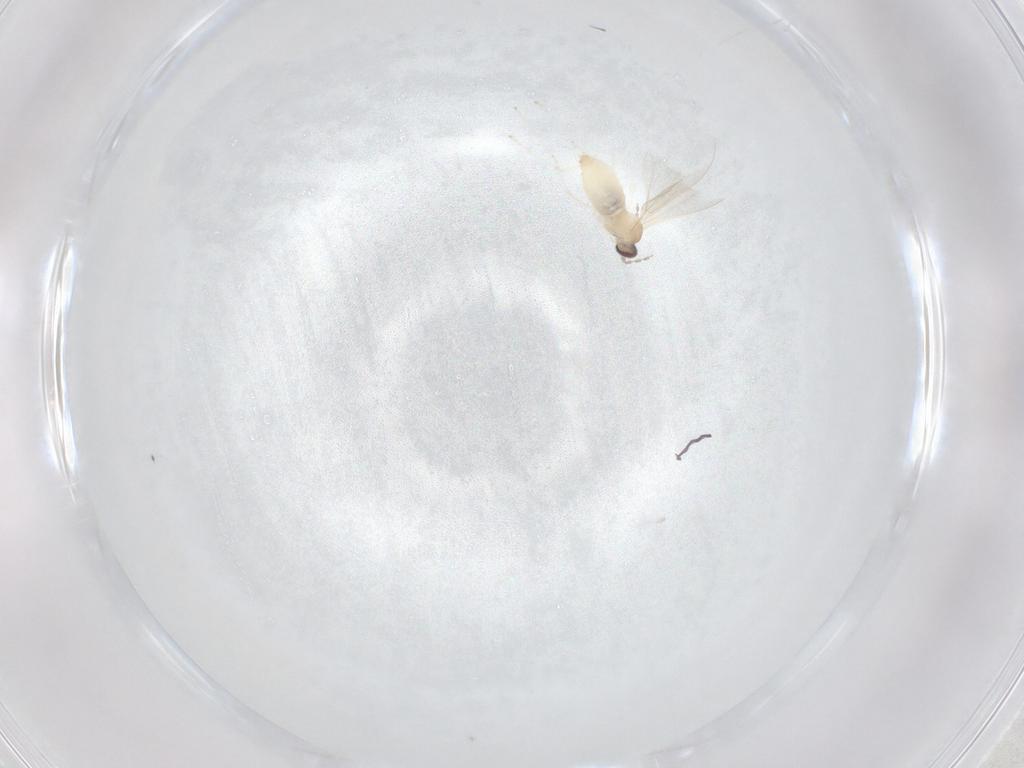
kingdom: Animalia
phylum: Arthropoda
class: Insecta
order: Diptera
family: Cecidomyiidae
